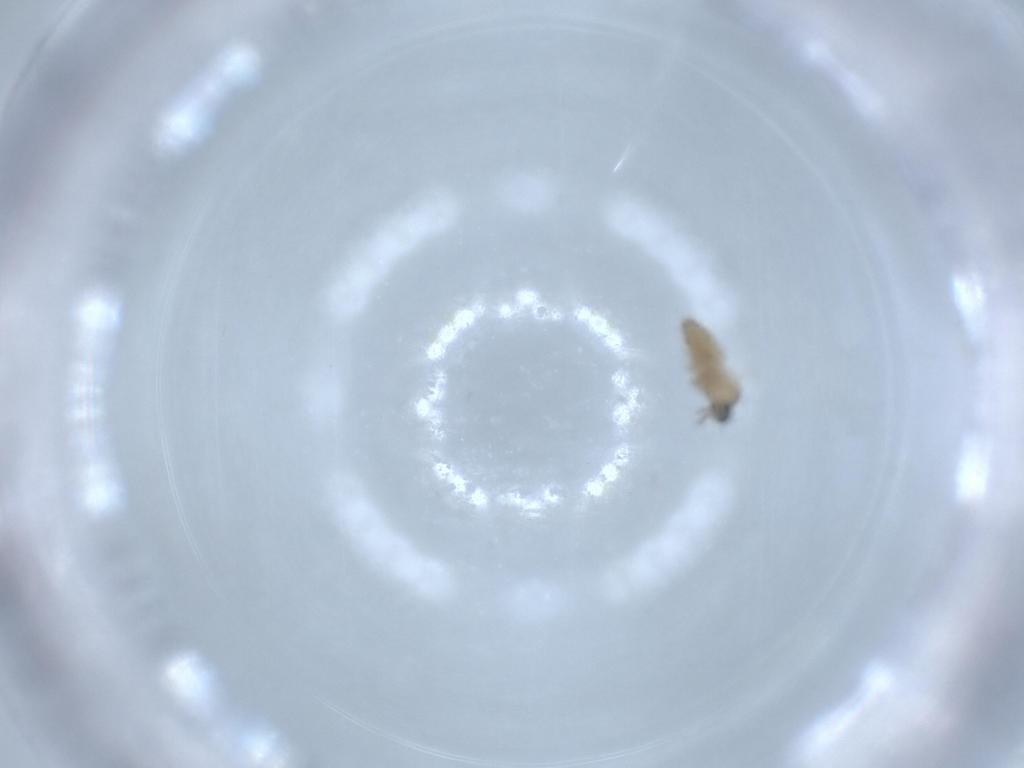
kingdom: Animalia
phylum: Arthropoda
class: Insecta
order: Diptera
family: Cecidomyiidae
